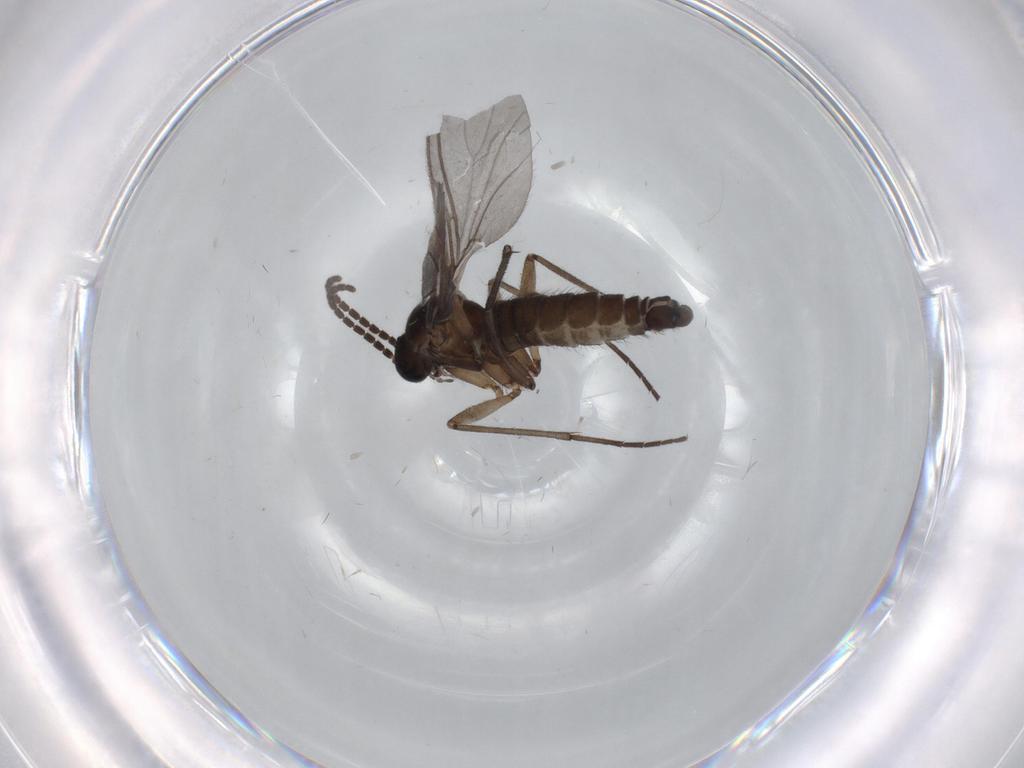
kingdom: Animalia
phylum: Arthropoda
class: Insecta
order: Diptera
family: Sciaridae
